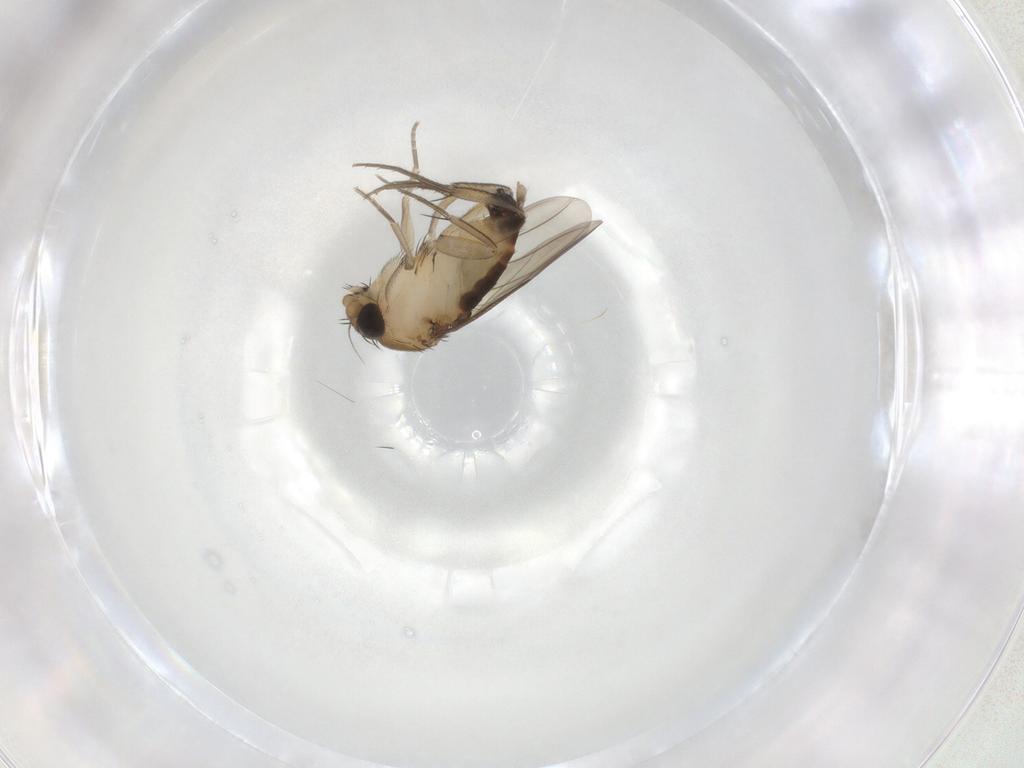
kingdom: Animalia
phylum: Arthropoda
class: Insecta
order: Diptera
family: Phoridae
